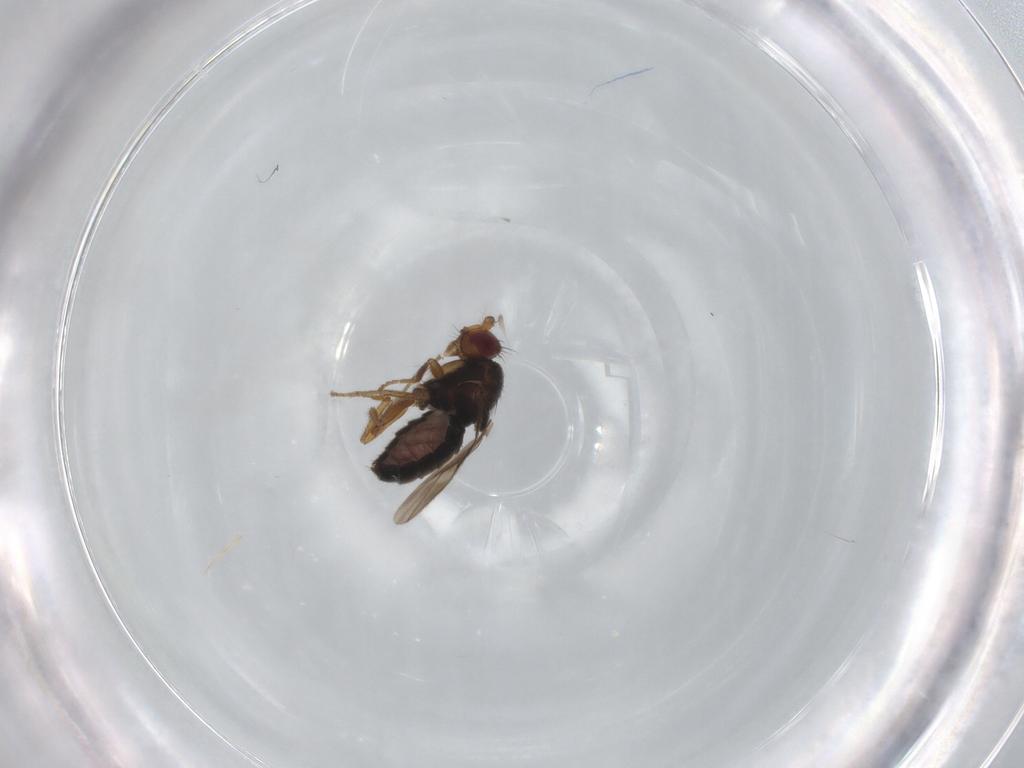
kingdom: Animalia
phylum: Arthropoda
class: Insecta
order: Diptera
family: Sphaeroceridae
